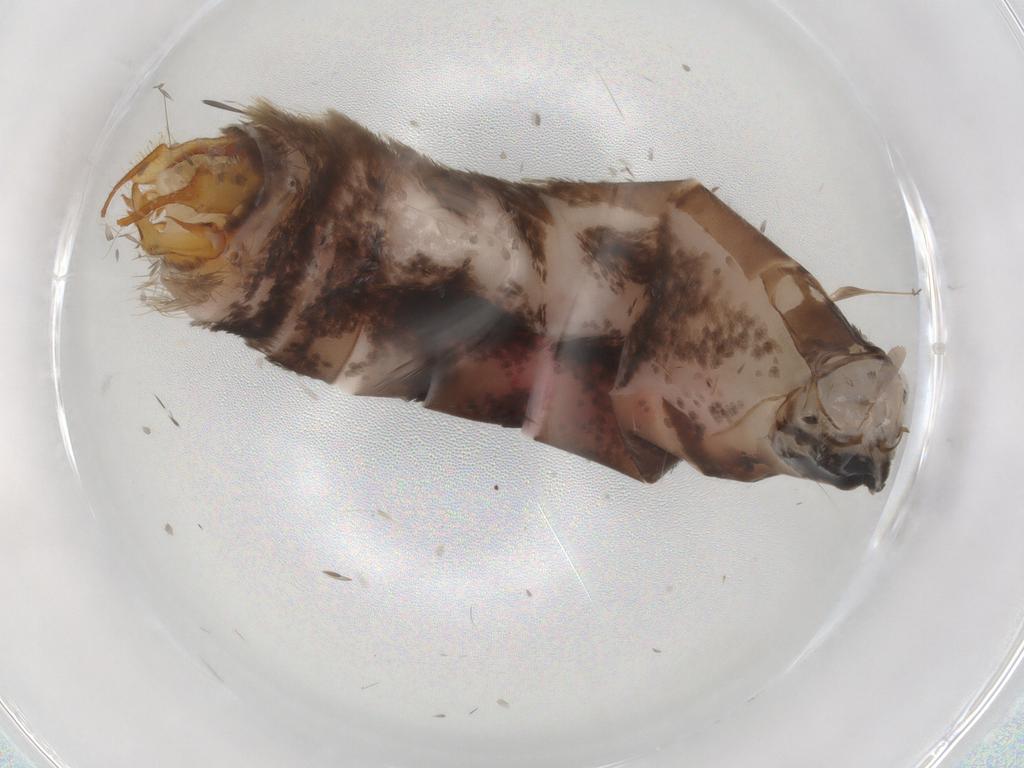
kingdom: Animalia
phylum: Arthropoda
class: Insecta
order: Lepidoptera
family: Nymphalidae
